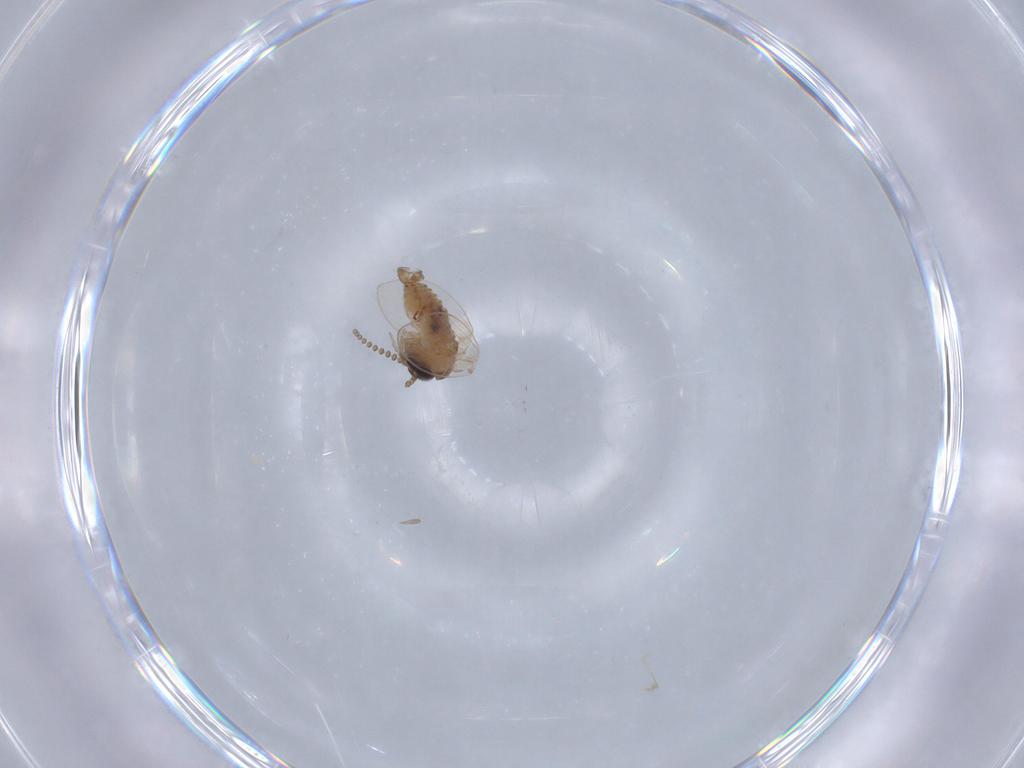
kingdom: Animalia
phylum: Arthropoda
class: Insecta
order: Diptera
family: Psychodidae
